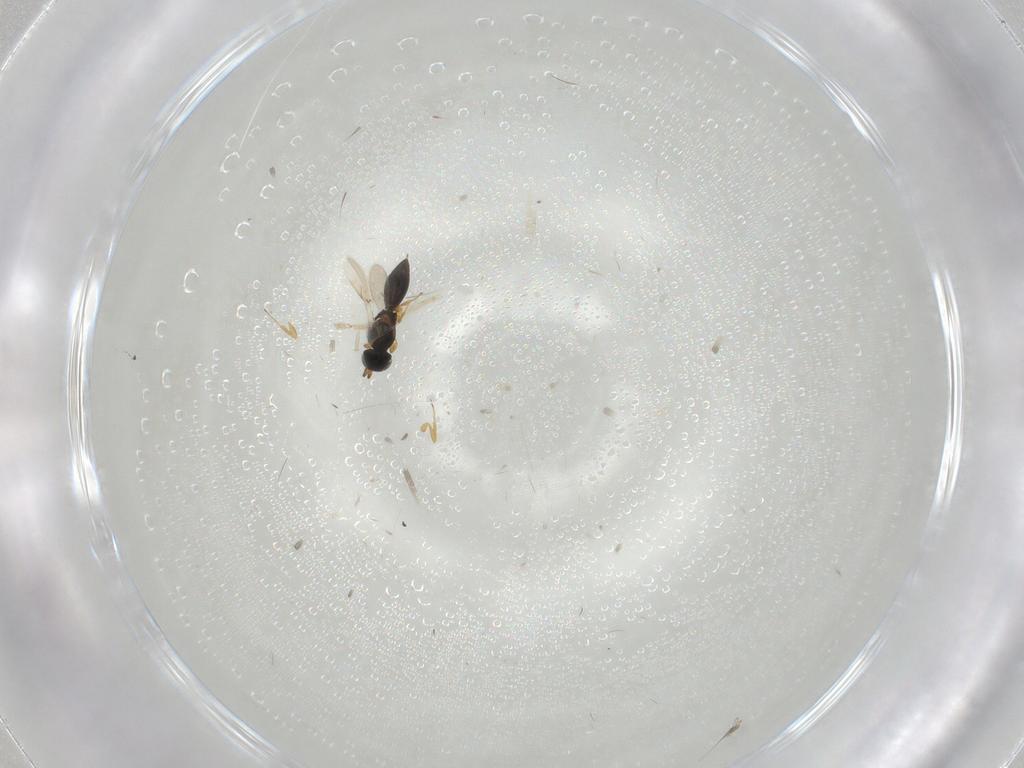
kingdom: Animalia
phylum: Arthropoda
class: Insecta
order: Hymenoptera
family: Scelionidae
